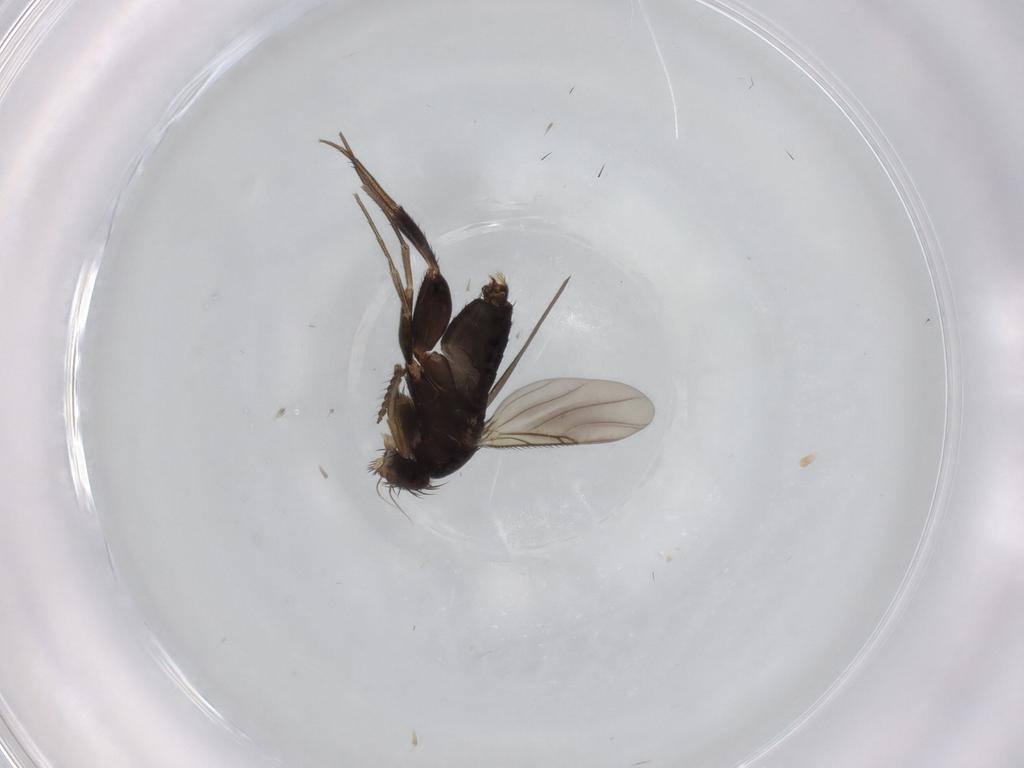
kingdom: Animalia
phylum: Arthropoda
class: Insecta
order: Diptera
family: Ditomyiidae
